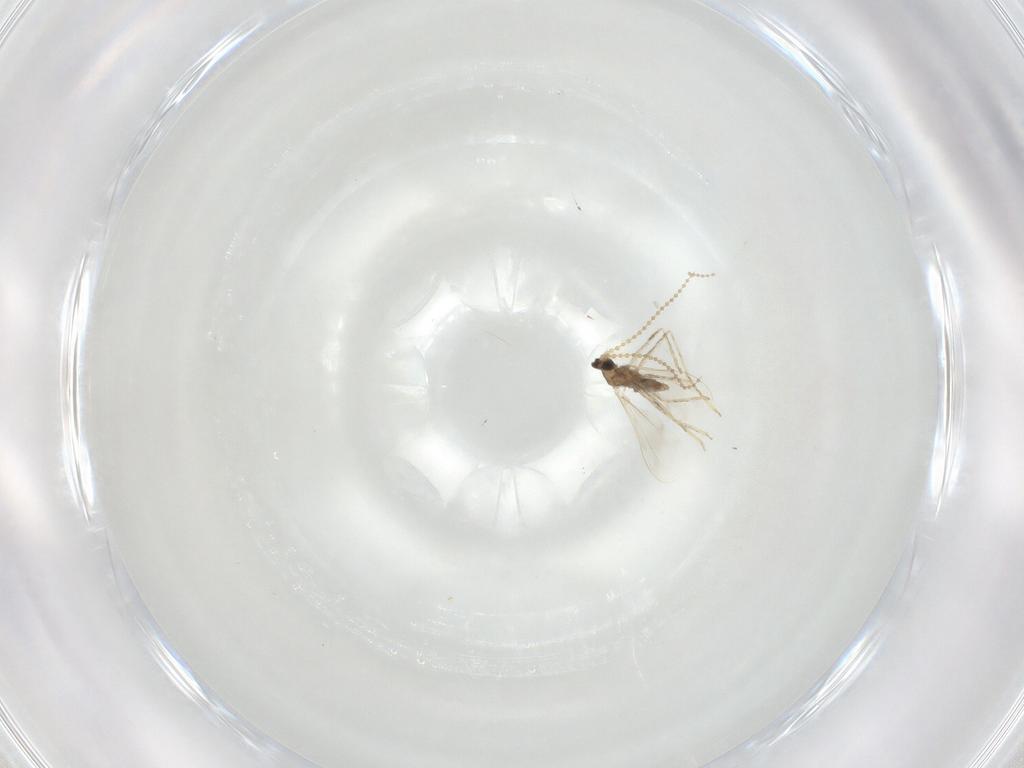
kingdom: Animalia
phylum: Arthropoda
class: Insecta
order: Diptera
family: Cecidomyiidae
